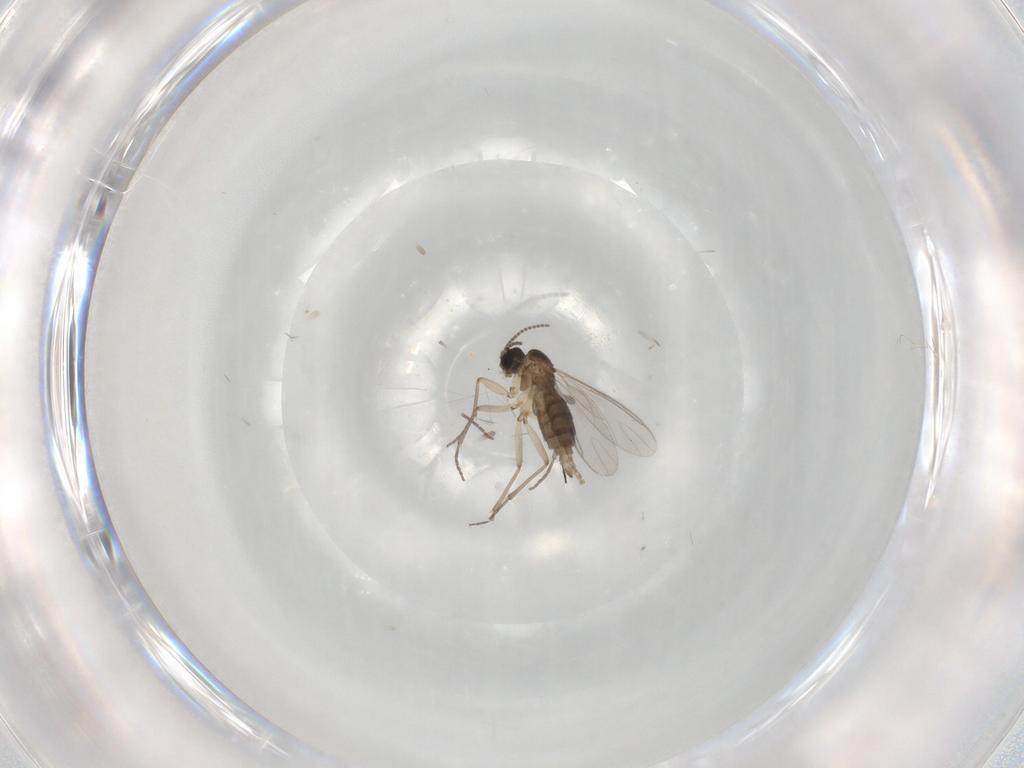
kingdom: Animalia
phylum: Arthropoda
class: Insecta
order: Diptera
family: Sciaridae
